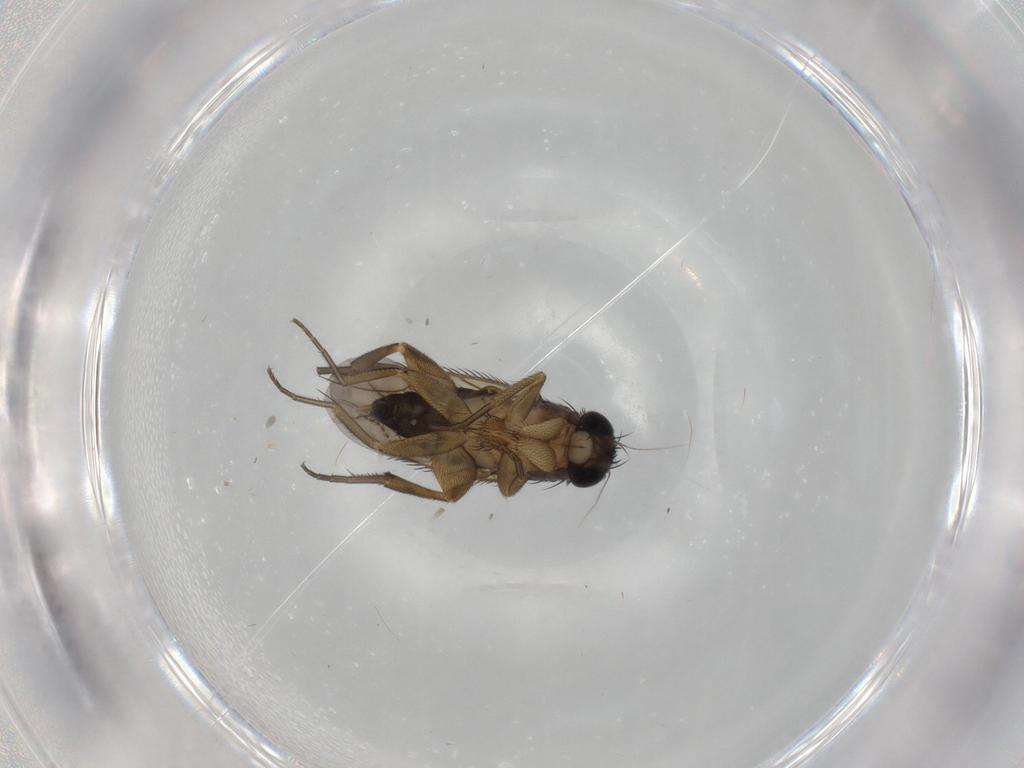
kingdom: Animalia
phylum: Arthropoda
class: Insecta
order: Diptera
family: Phoridae
